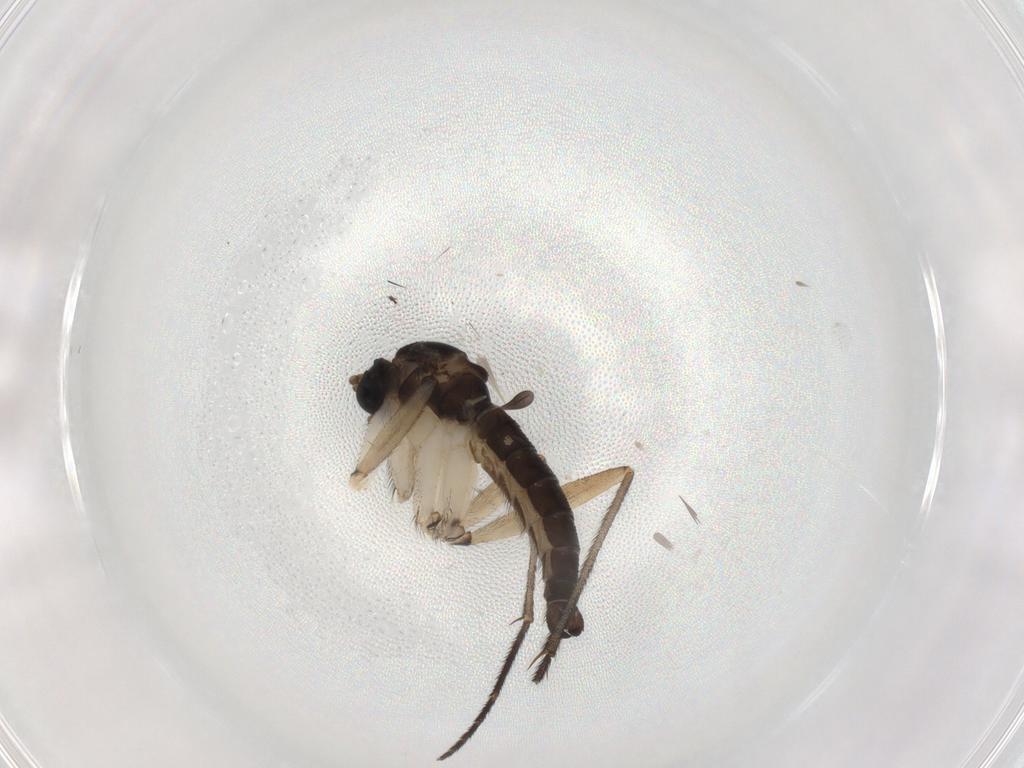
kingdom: Animalia
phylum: Arthropoda
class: Insecta
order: Diptera
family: Sciaridae
